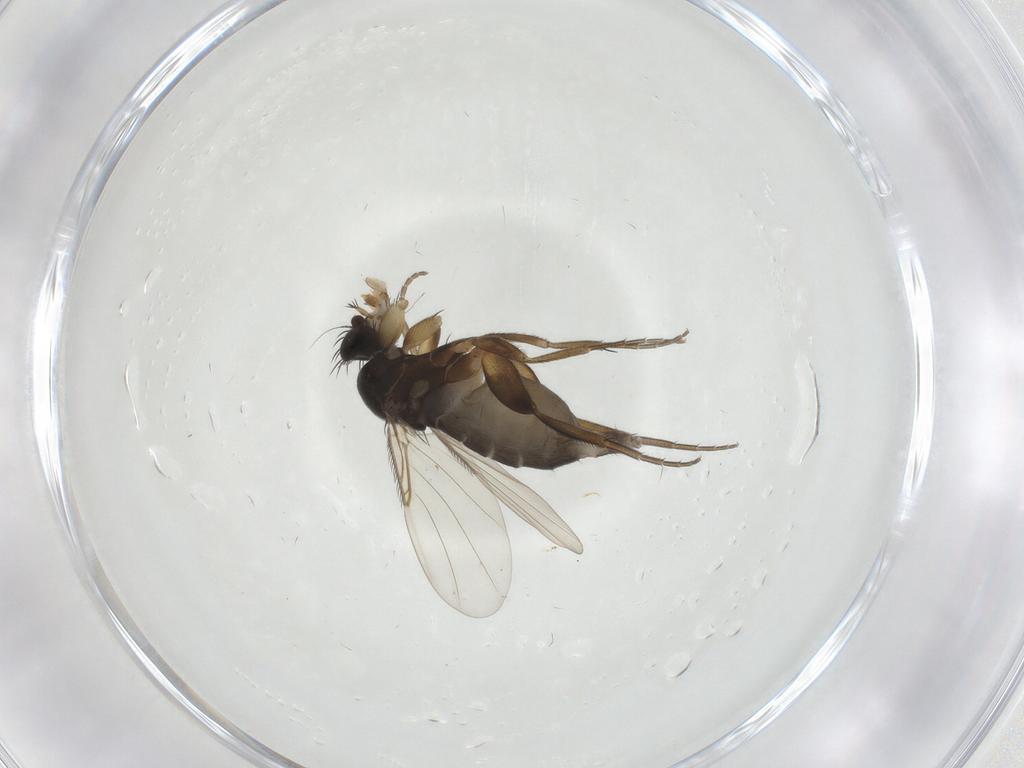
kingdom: Animalia
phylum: Arthropoda
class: Insecta
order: Diptera
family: Phoridae
